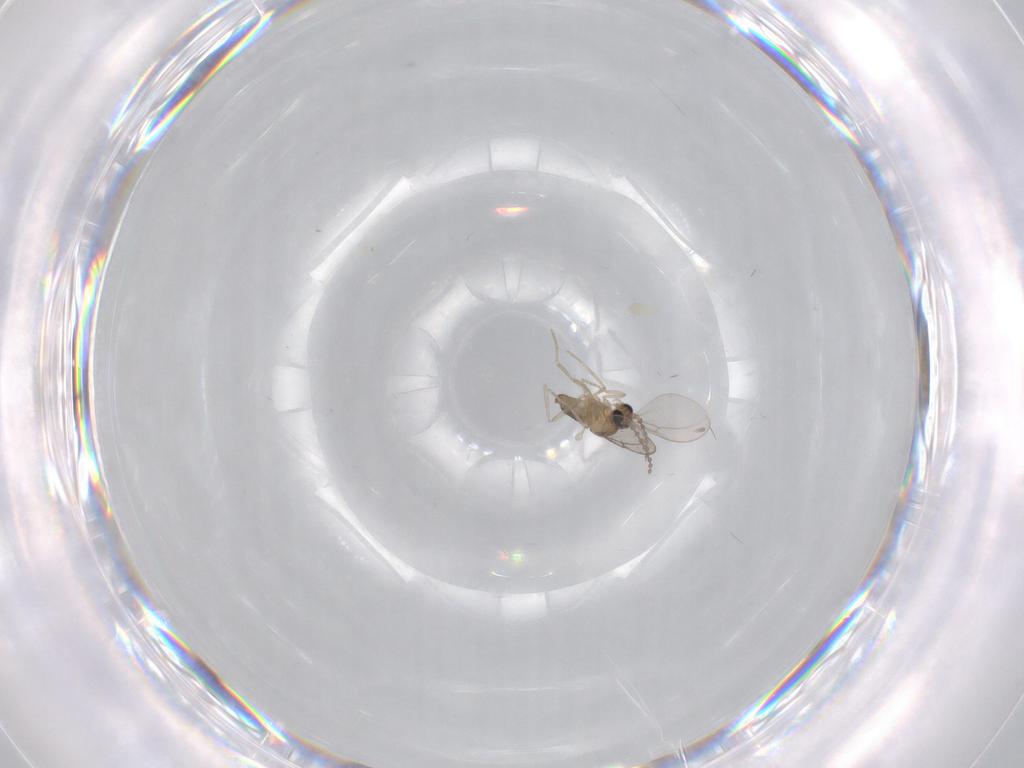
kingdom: Animalia
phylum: Arthropoda
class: Insecta
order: Diptera
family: Cecidomyiidae
